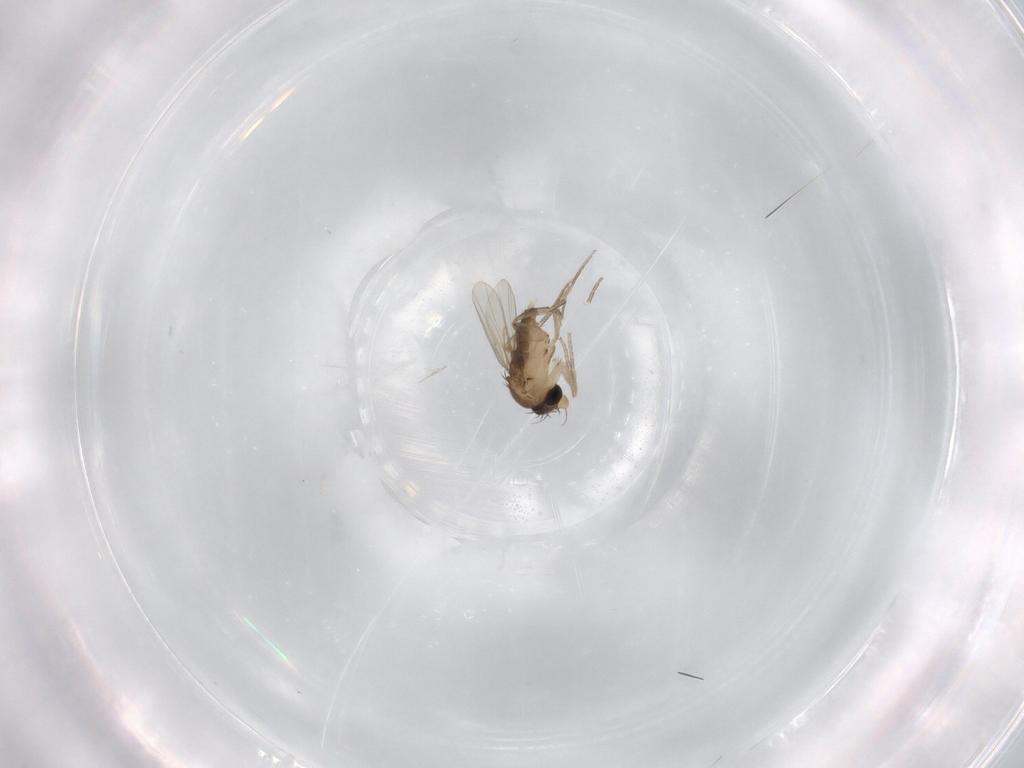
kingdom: Animalia
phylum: Arthropoda
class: Insecta
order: Diptera
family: Phoridae
